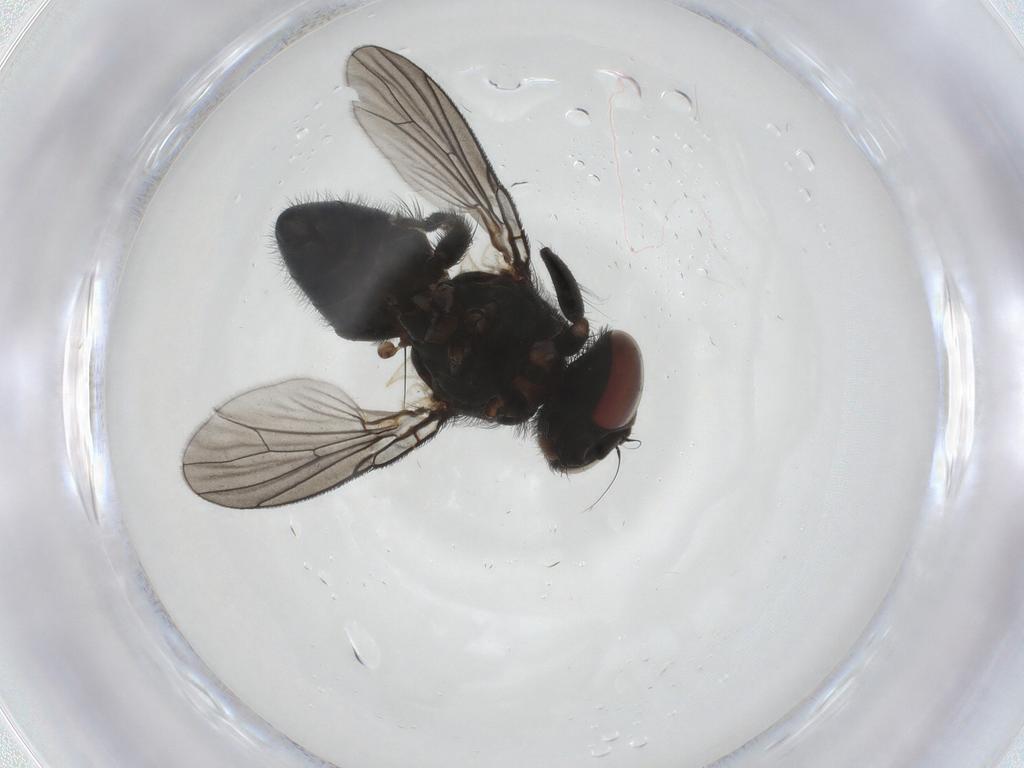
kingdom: Animalia
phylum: Arthropoda
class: Insecta
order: Diptera
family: Muscidae
